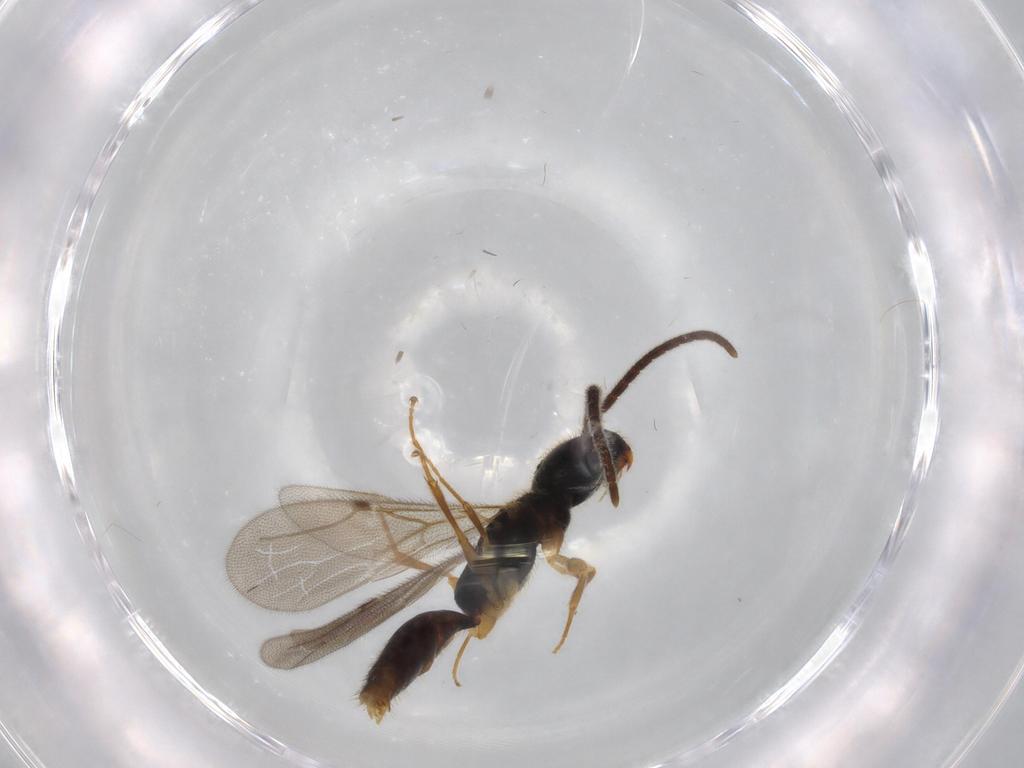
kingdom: Animalia
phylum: Arthropoda
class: Insecta
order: Hymenoptera
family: Bethylidae
